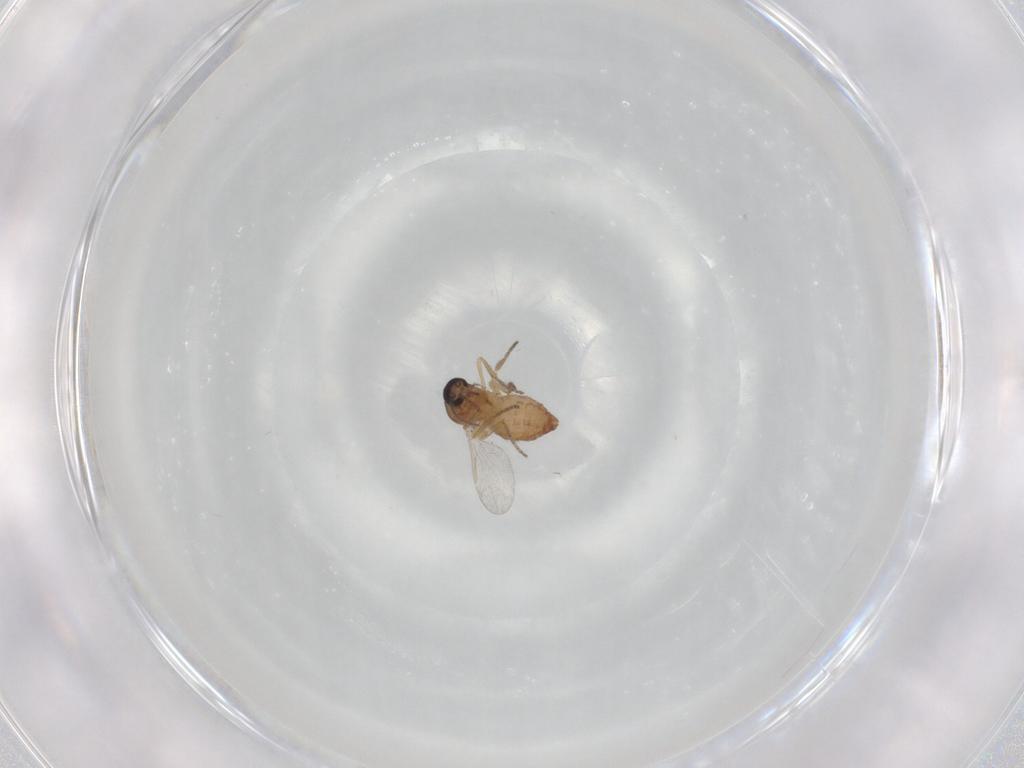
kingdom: Animalia
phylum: Arthropoda
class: Insecta
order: Diptera
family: Ceratopogonidae
